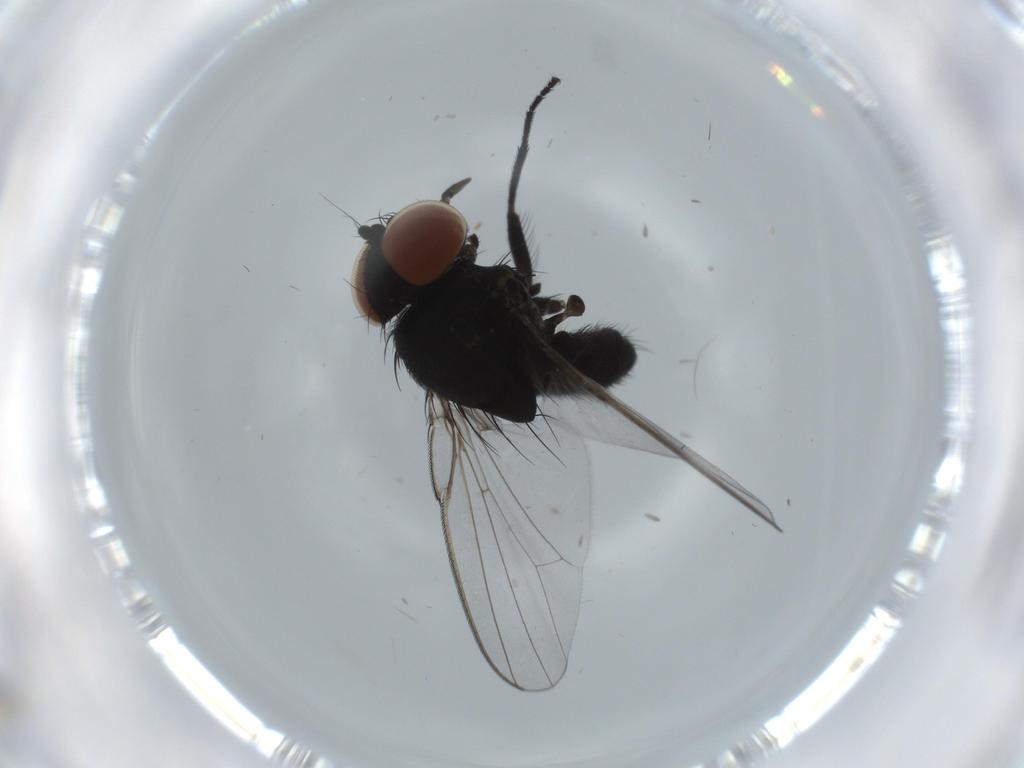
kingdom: Animalia
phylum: Arthropoda
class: Insecta
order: Diptera
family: Milichiidae
